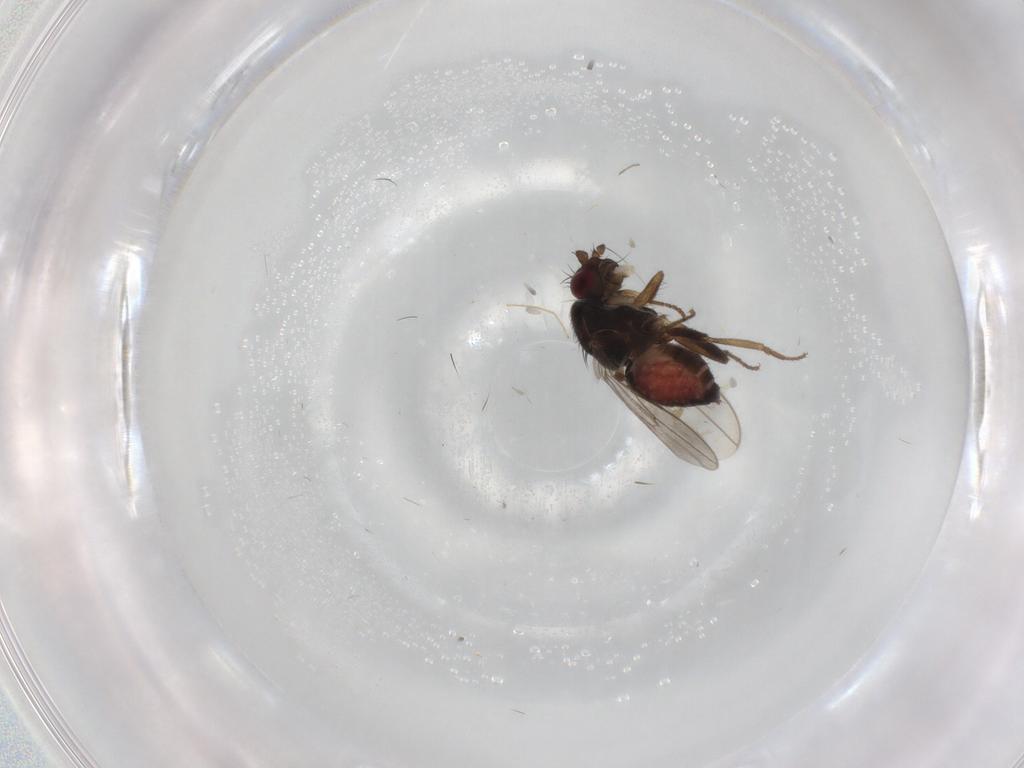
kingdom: Animalia
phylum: Arthropoda
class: Insecta
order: Diptera
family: Sphaeroceridae
